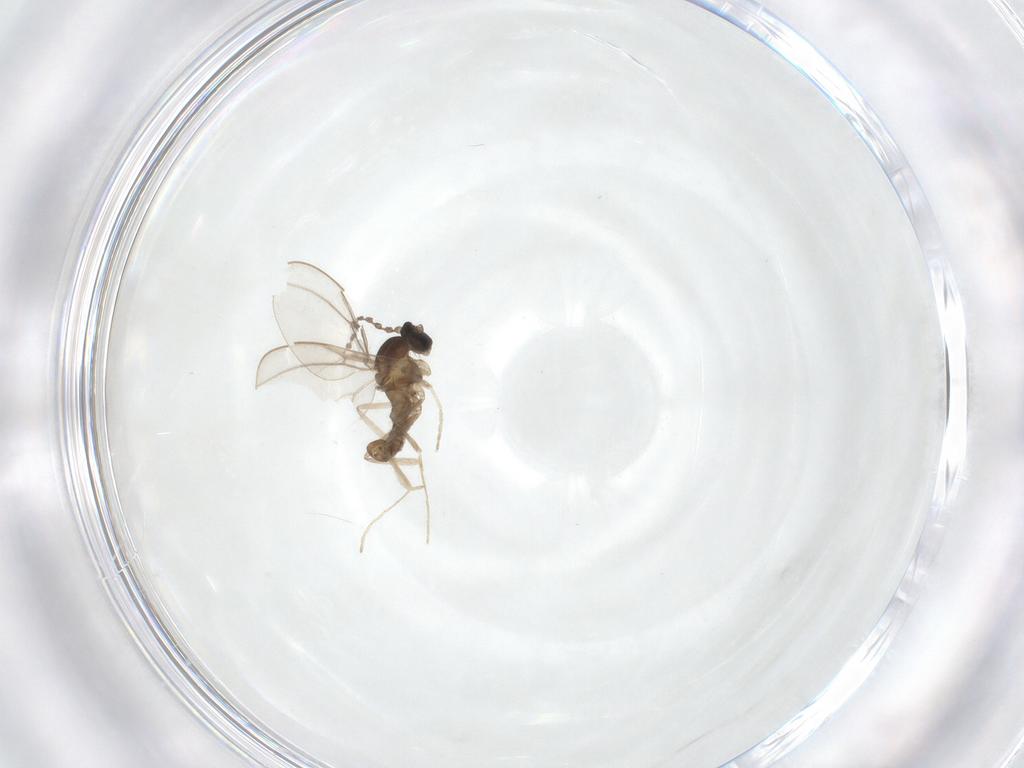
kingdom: Animalia
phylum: Arthropoda
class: Insecta
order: Diptera
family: Cecidomyiidae
